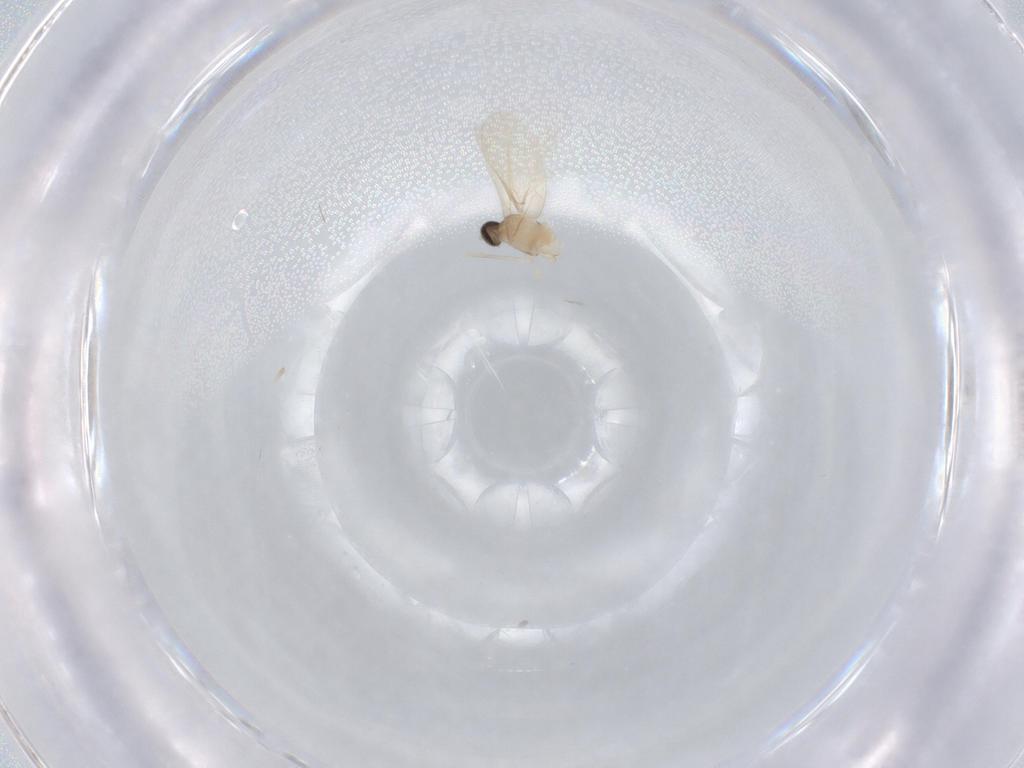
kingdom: Animalia
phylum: Arthropoda
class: Insecta
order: Diptera
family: Cecidomyiidae
